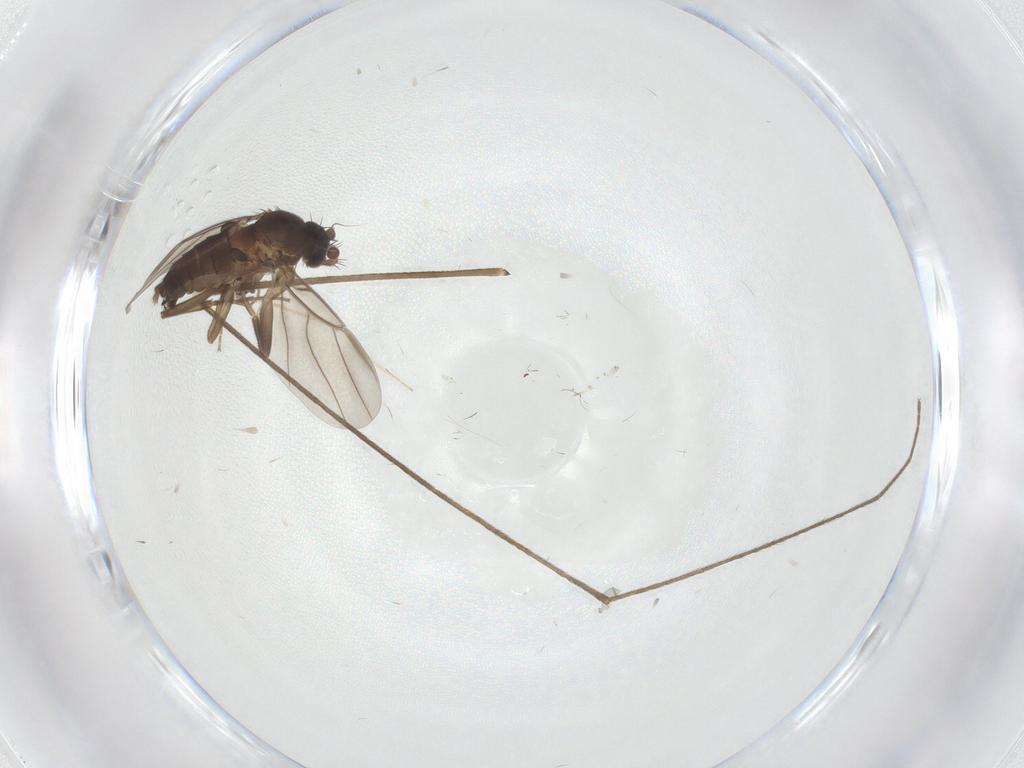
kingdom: Animalia
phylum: Arthropoda
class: Insecta
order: Diptera
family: Limoniidae
